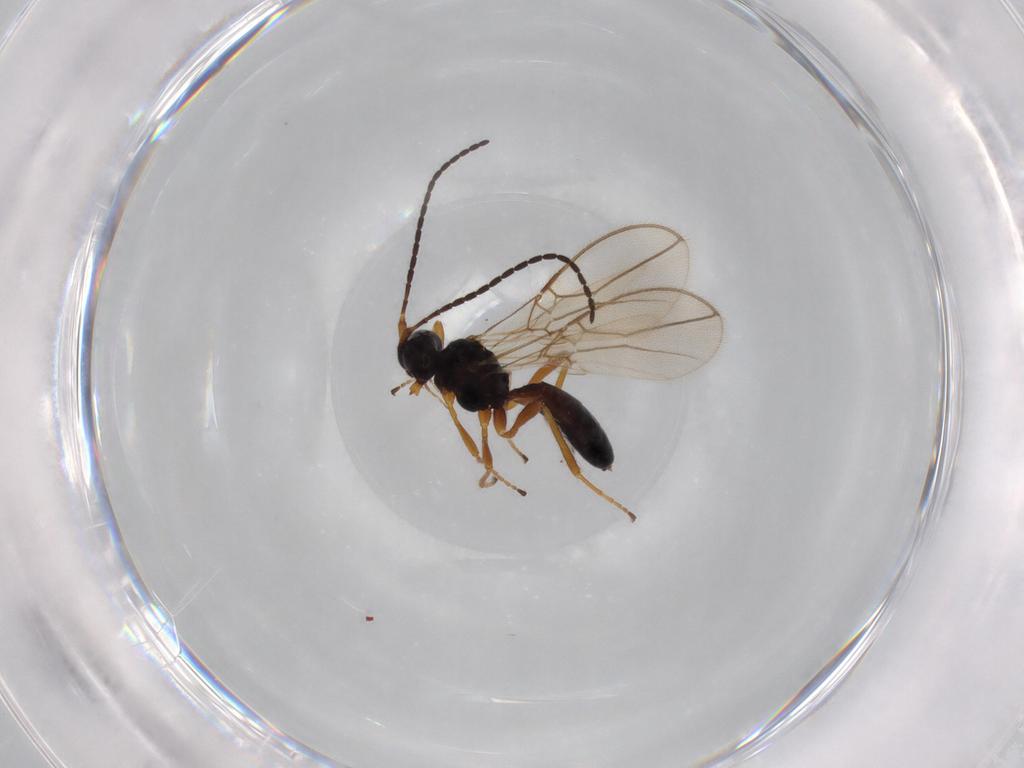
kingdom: Animalia
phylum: Arthropoda
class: Insecta
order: Hymenoptera
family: Braconidae
